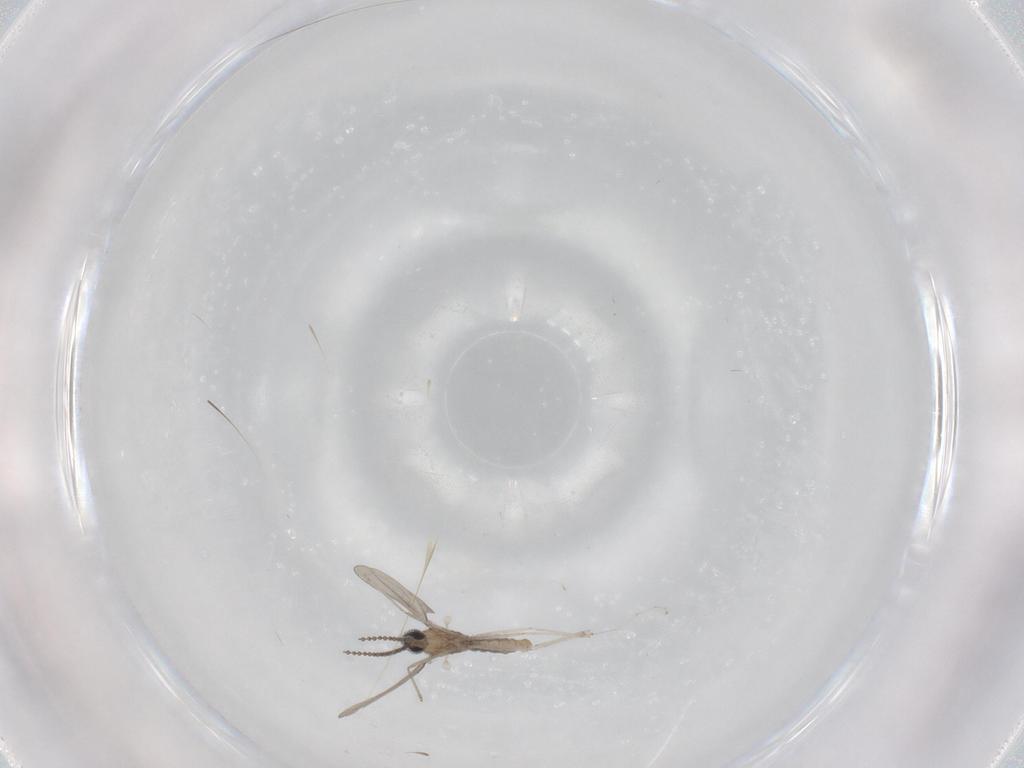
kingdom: Animalia
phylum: Arthropoda
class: Insecta
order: Diptera
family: Cecidomyiidae
